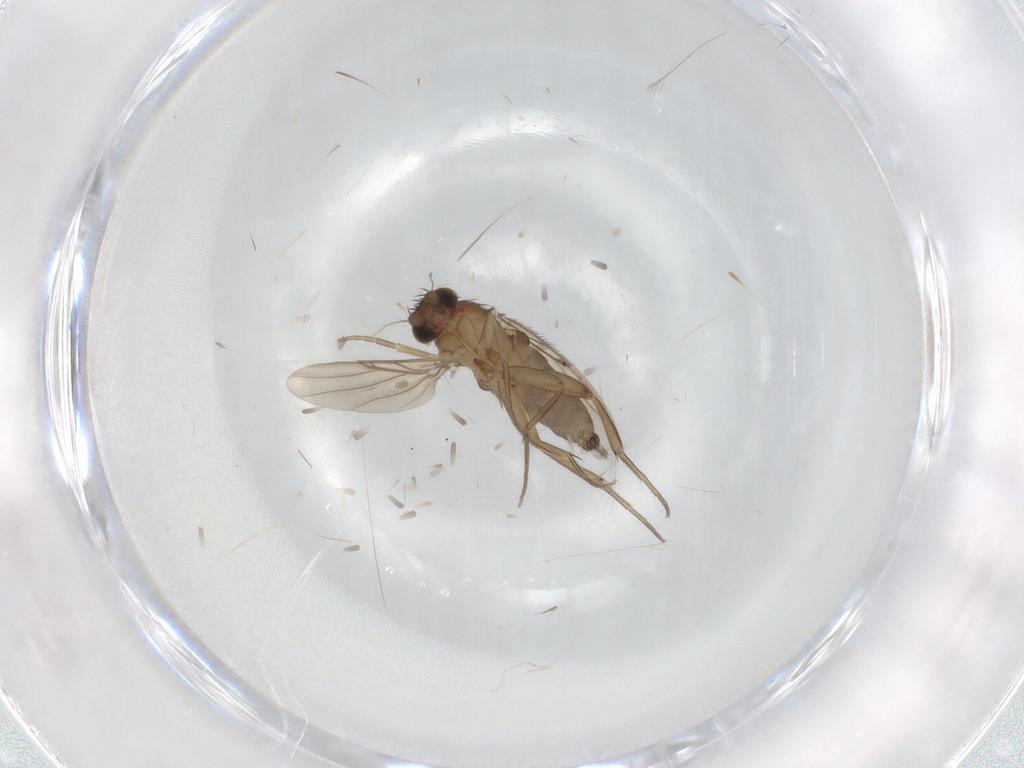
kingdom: Animalia
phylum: Arthropoda
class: Insecta
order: Diptera
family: Phoridae
